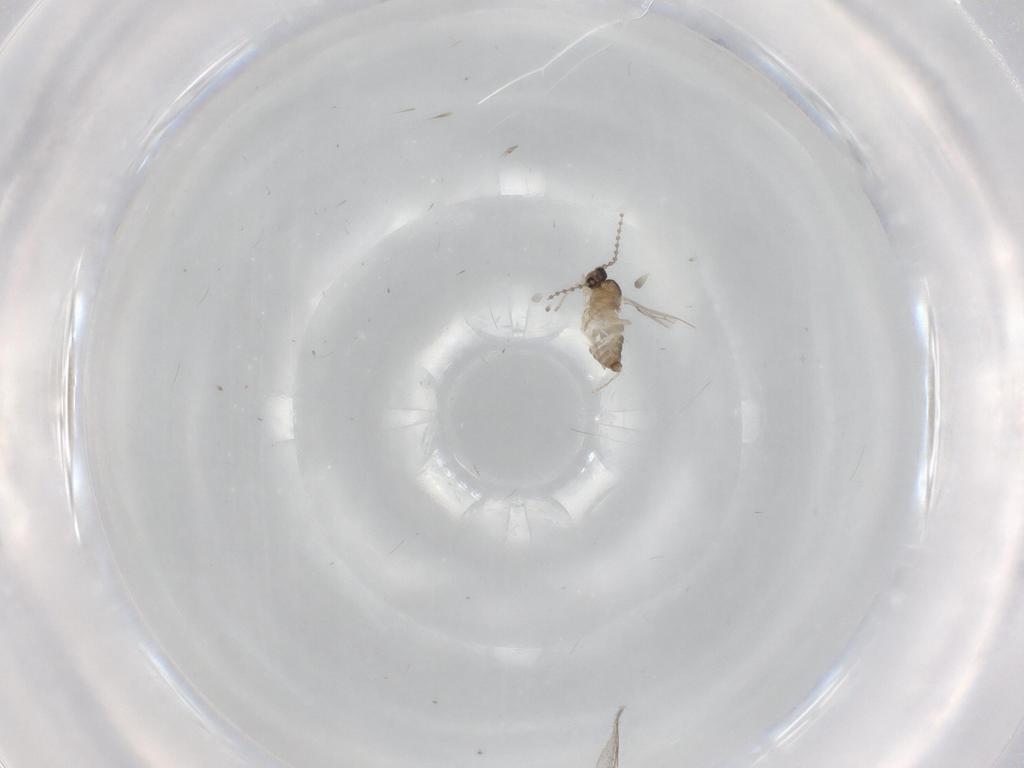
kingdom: Animalia
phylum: Arthropoda
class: Insecta
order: Diptera
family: Cecidomyiidae
